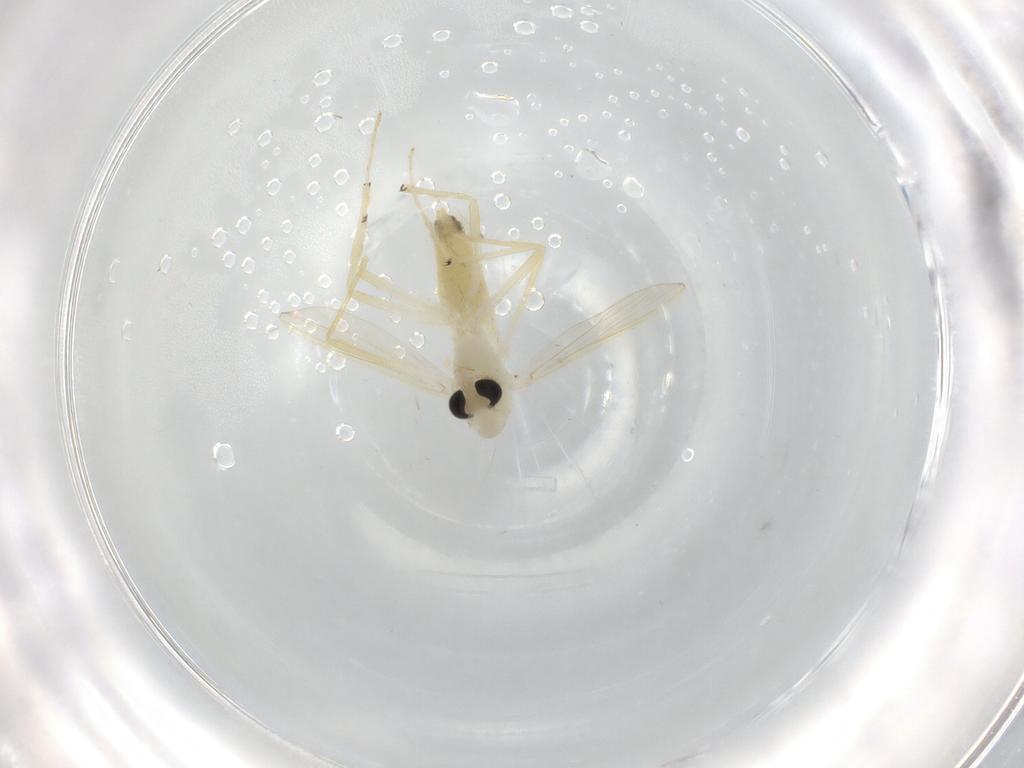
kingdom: Animalia
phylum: Arthropoda
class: Insecta
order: Diptera
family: Chironomidae
